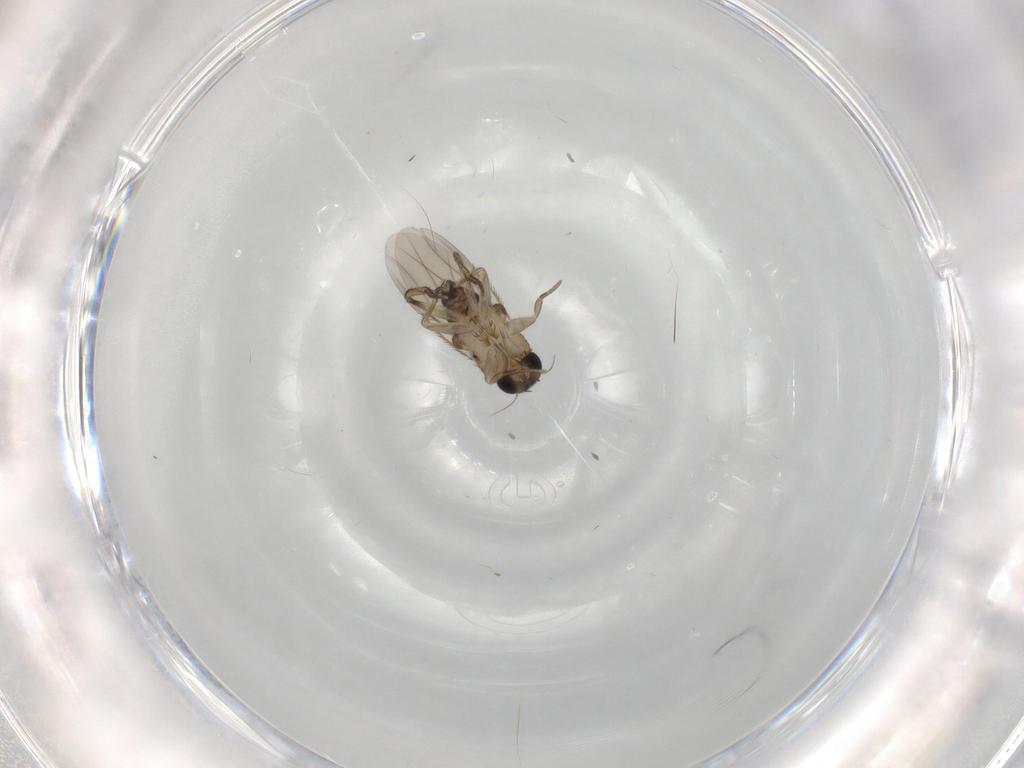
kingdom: Animalia
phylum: Arthropoda
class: Insecta
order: Diptera
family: Phoridae
